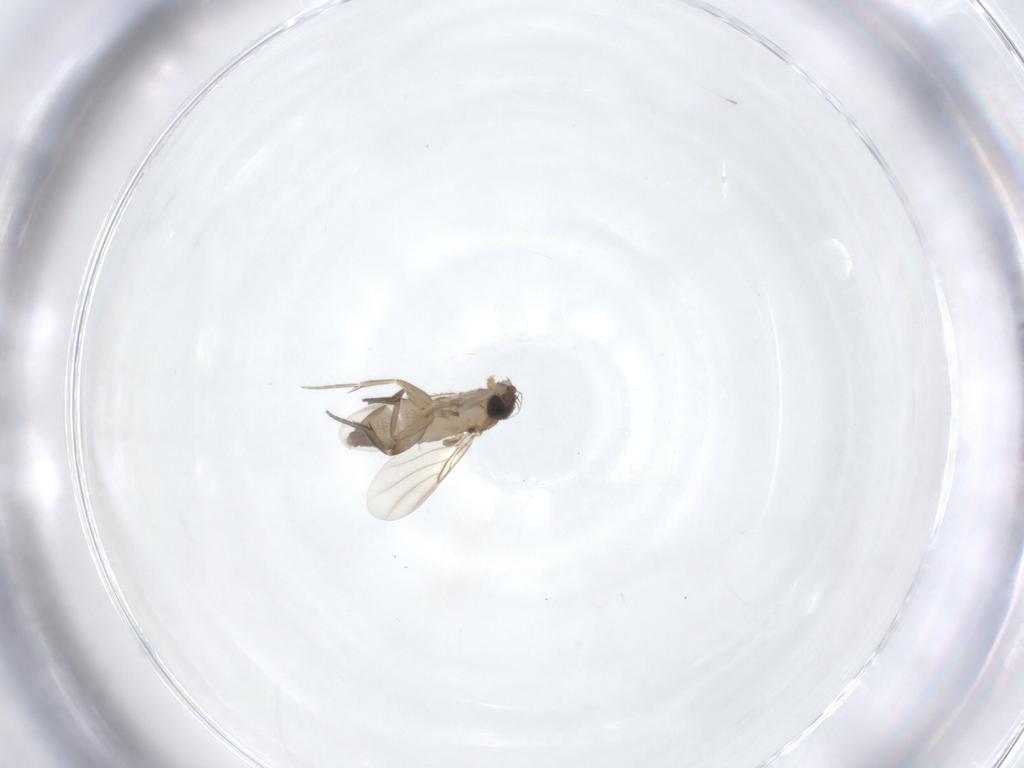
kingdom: Animalia
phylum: Arthropoda
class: Insecta
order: Diptera
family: Phoridae
